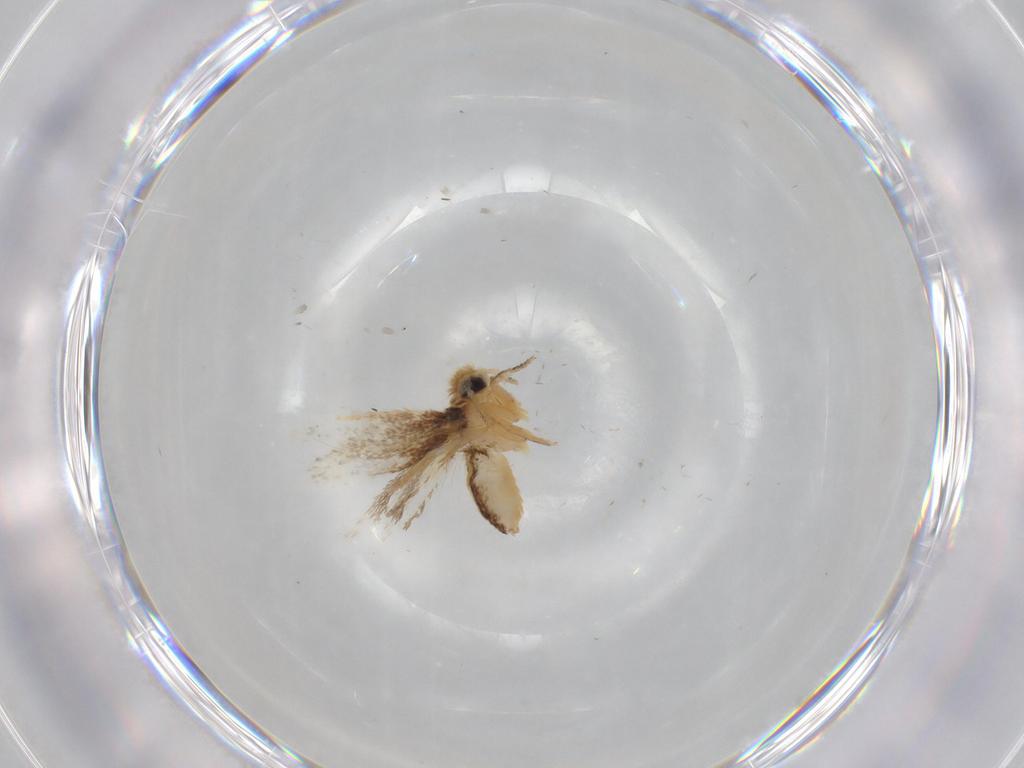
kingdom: Animalia
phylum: Arthropoda
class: Insecta
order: Lepidoptera
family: Nepticulidae
